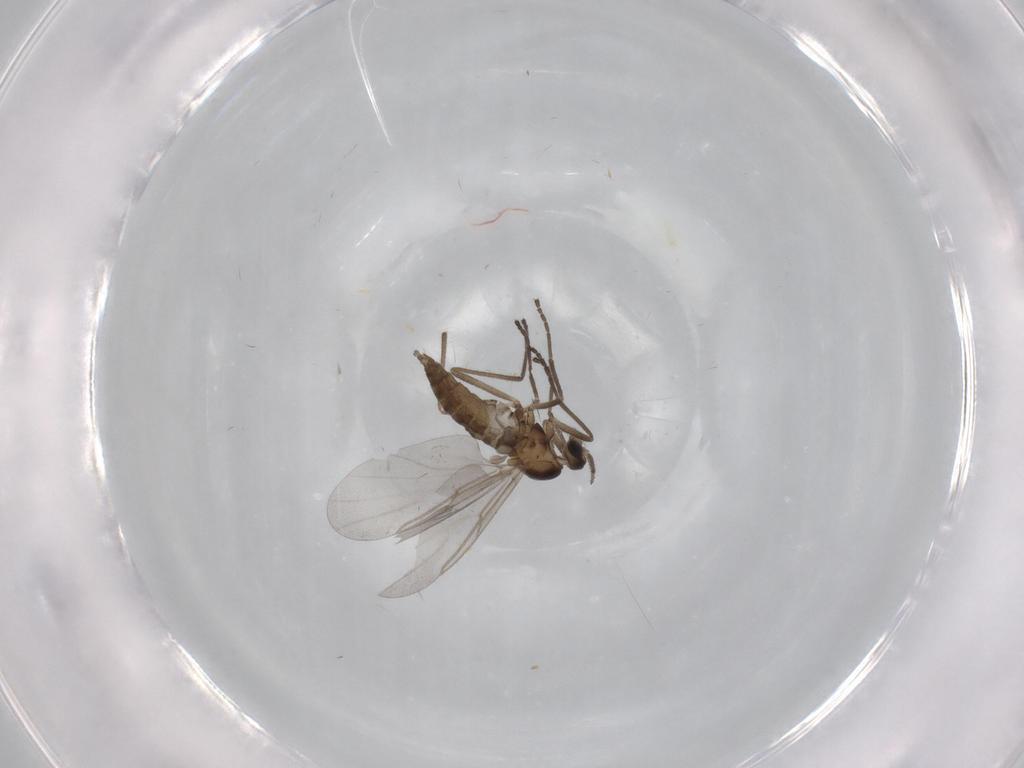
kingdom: Animalia
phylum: Arthropoda
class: Insecta
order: Diptera
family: Cecidomyiidae
